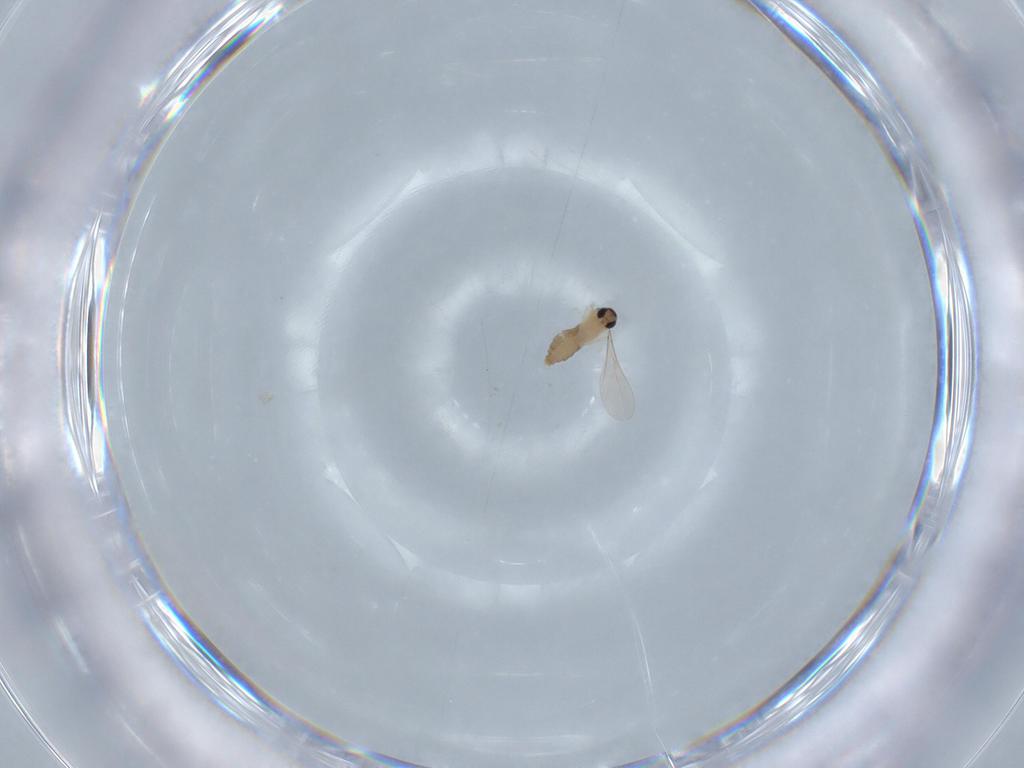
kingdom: Animalia
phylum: Arthropoda
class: Insecta
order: Diptera
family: Cecidomyiidae
